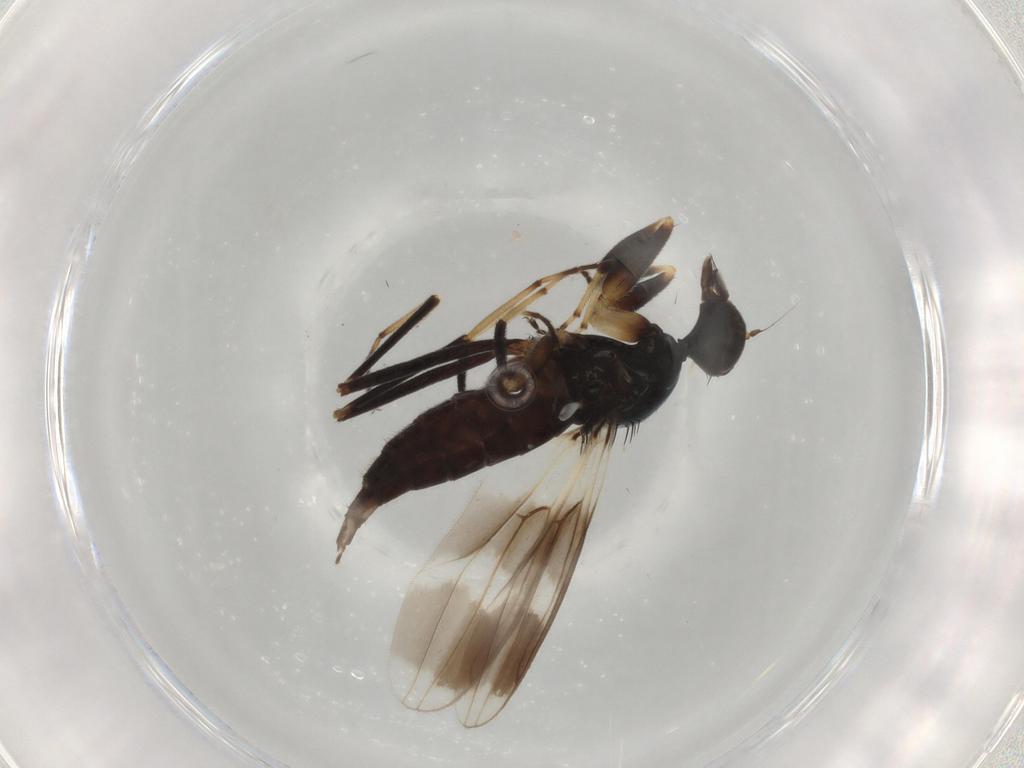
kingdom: Animalia
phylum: Arthropoda
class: Insecta
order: Diptera
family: Hybotidae
